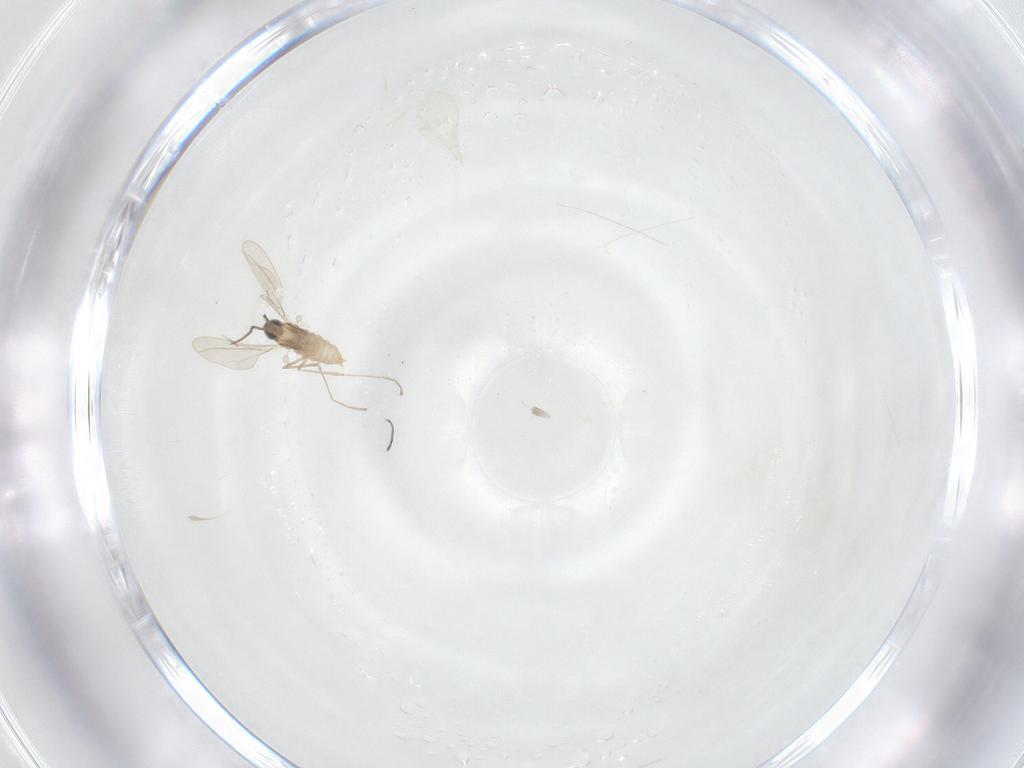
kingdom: Animalia
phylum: Arthropoda
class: Insecta
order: Diptera
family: Cecidomyiidae
